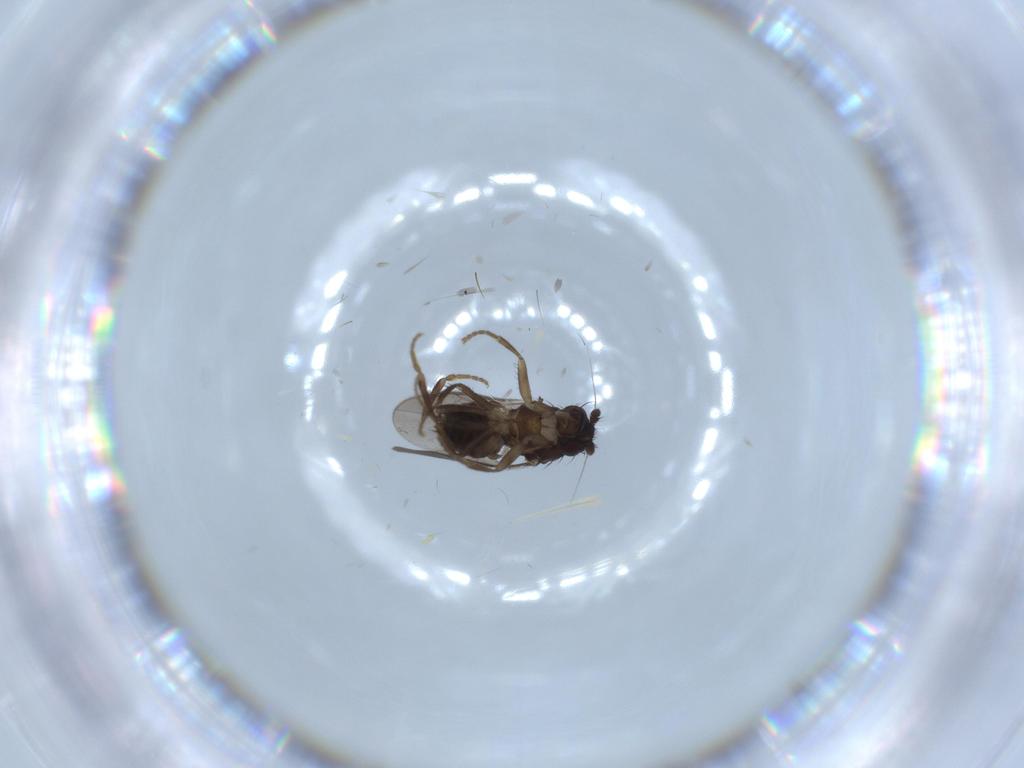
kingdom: Animalia
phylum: Arthropoda
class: Insecta
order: Diptera
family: Sphaeroceridae
